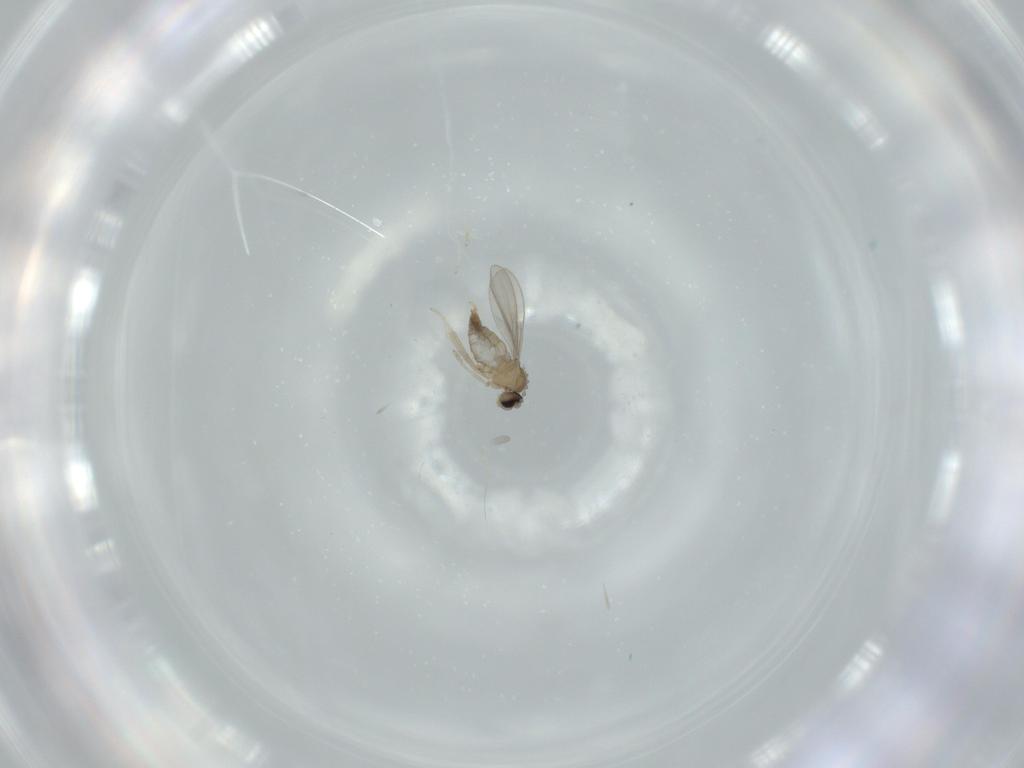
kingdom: Animalia
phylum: Arthropoda
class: Insecta
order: Diptera
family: Cecidomyiidae
